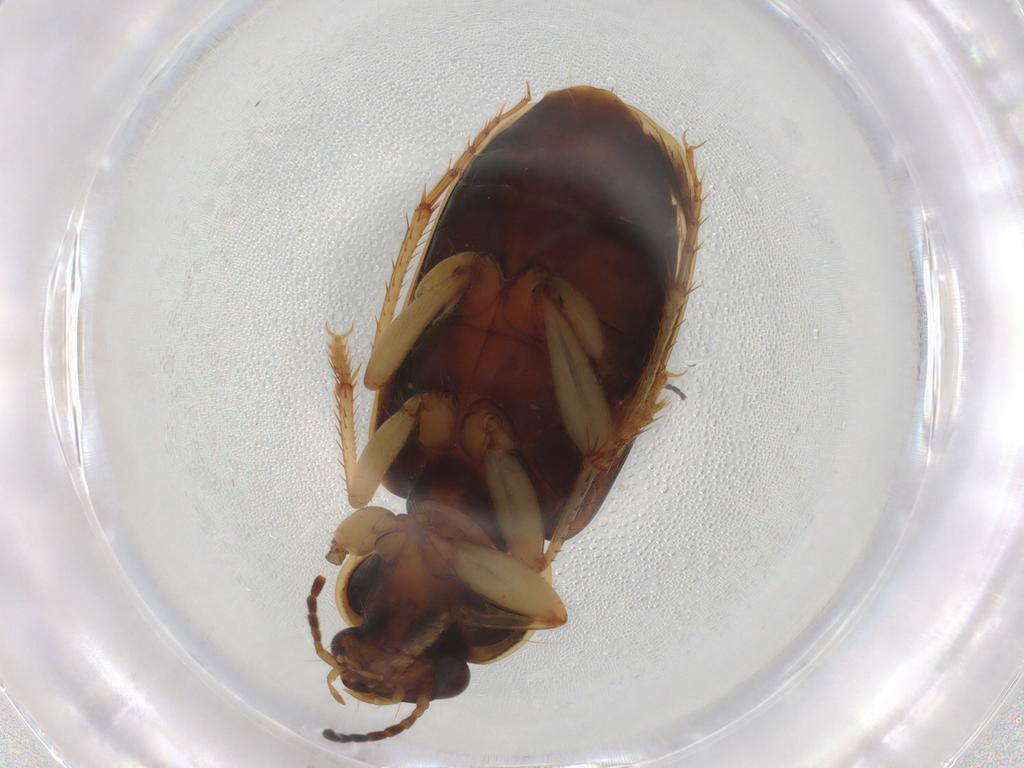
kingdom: Animalia
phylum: Arthropoda
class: Insecta
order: Coleoptera
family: Carabidae
